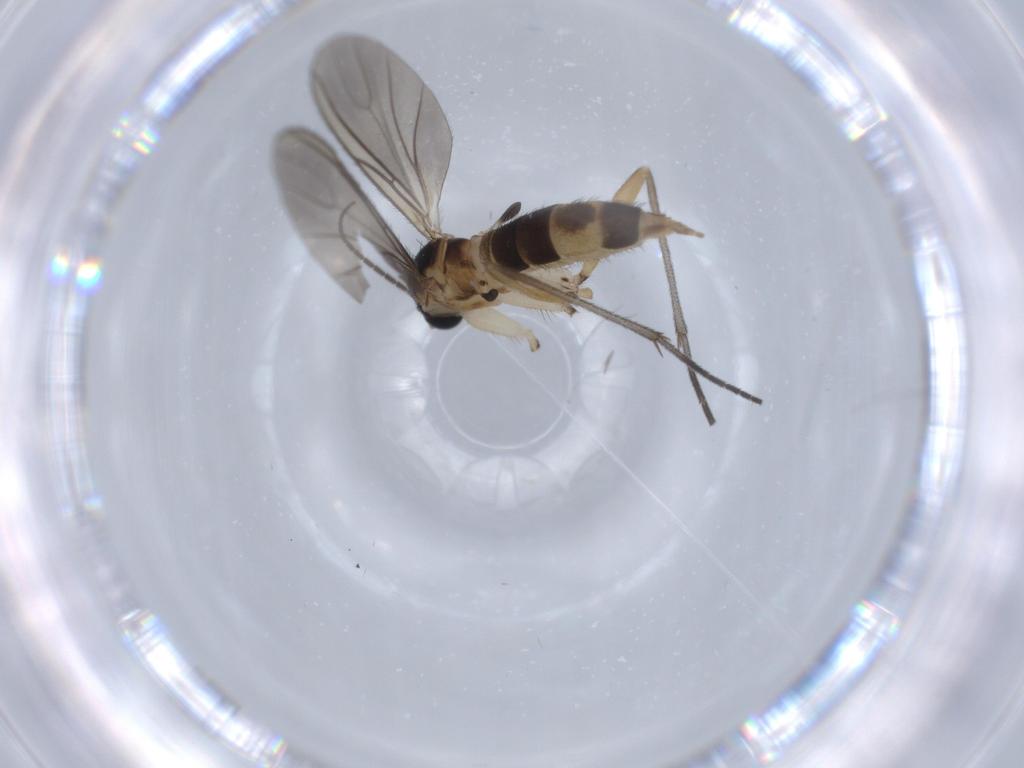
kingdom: Animalia
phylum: Arthropoda
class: Insecta
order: Diptera
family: Sciaridae
